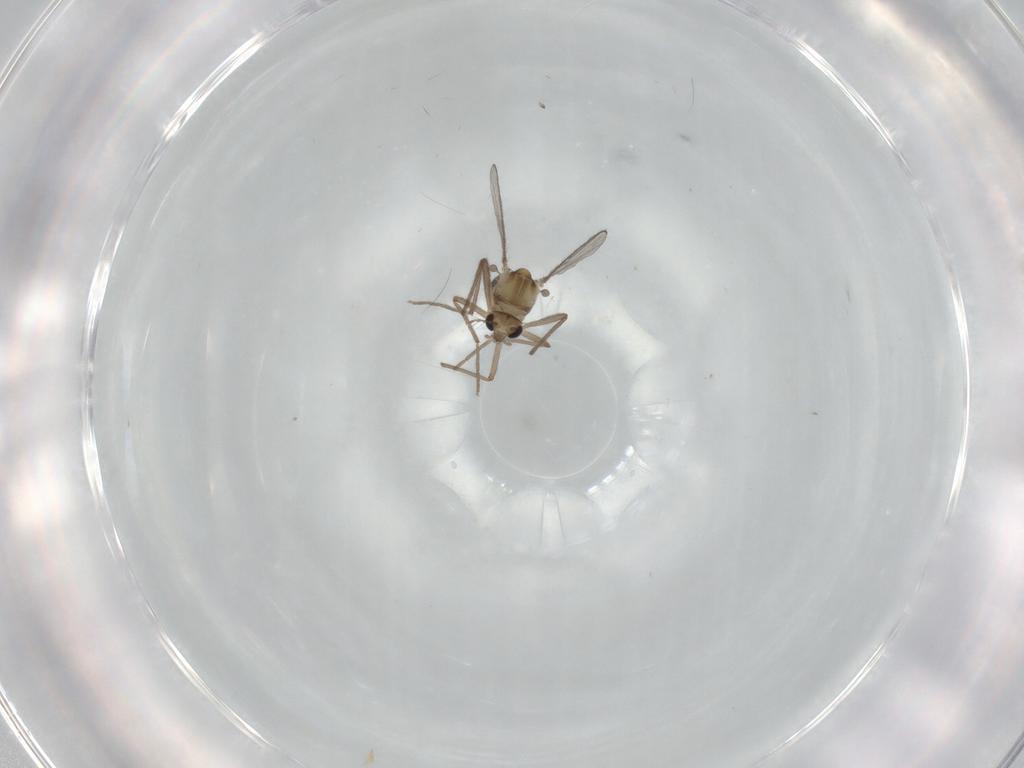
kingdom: Animalia
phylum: Arthropoda
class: Insecta
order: Diptera
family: Chironomidae
